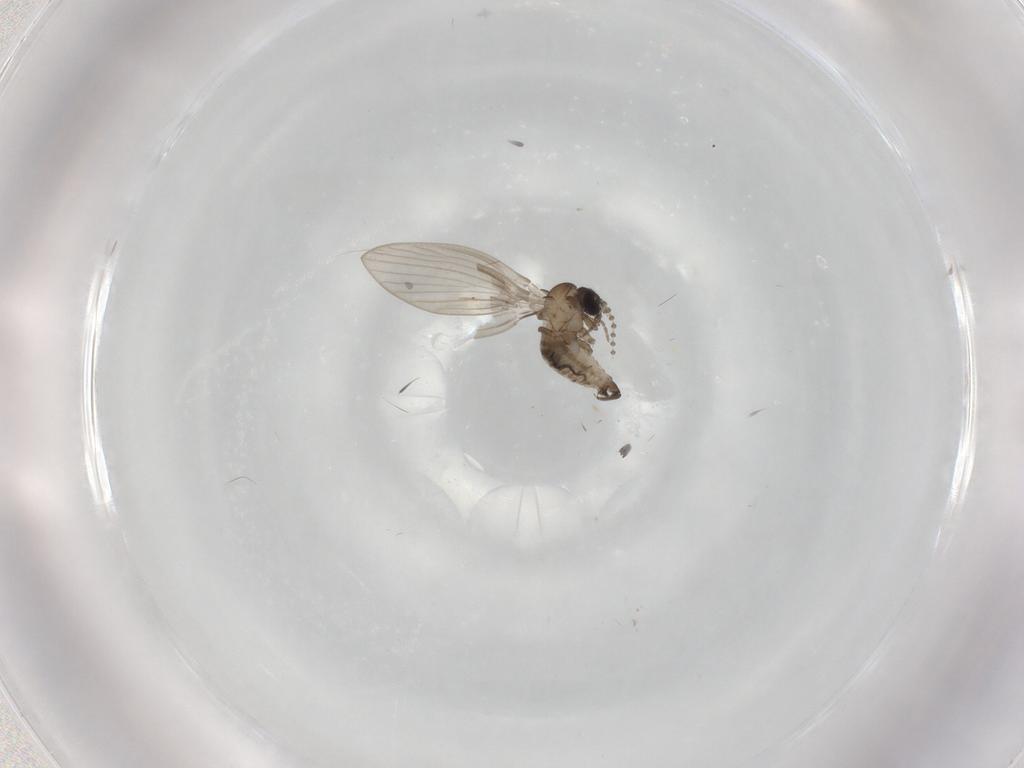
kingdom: Animalia
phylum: Arthropoda
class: Insecta
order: Diptera
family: Psychodidae
